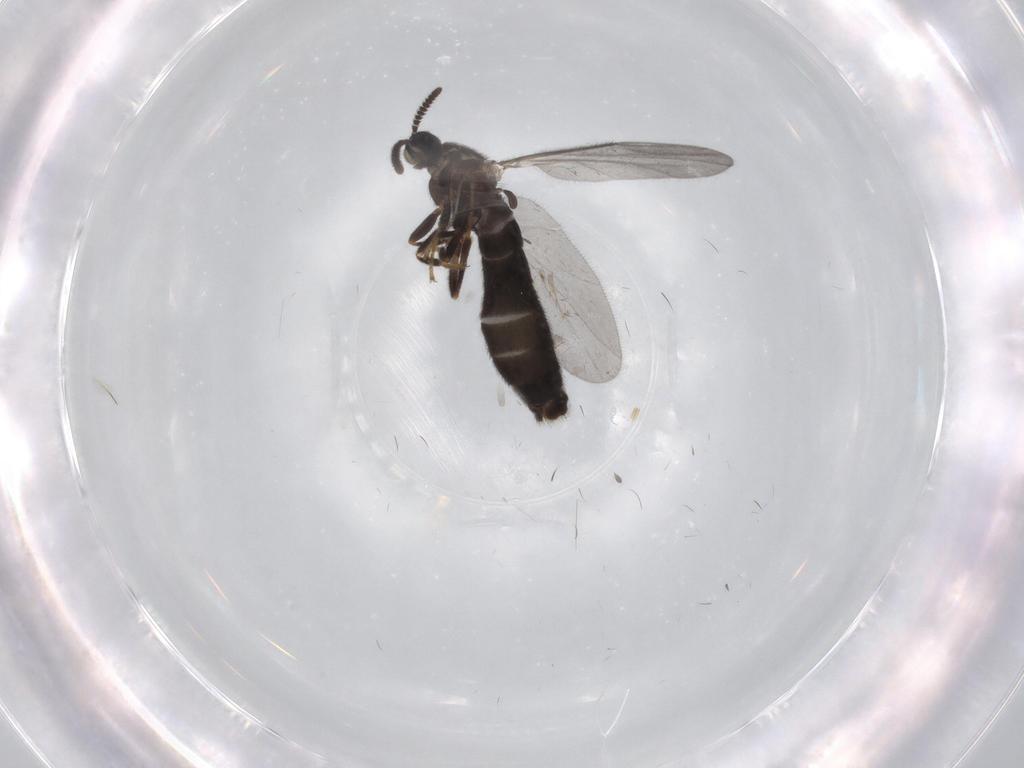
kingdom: Animalia
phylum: Arthropoda
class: Insecta
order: Diptera
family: Scatopsidae
